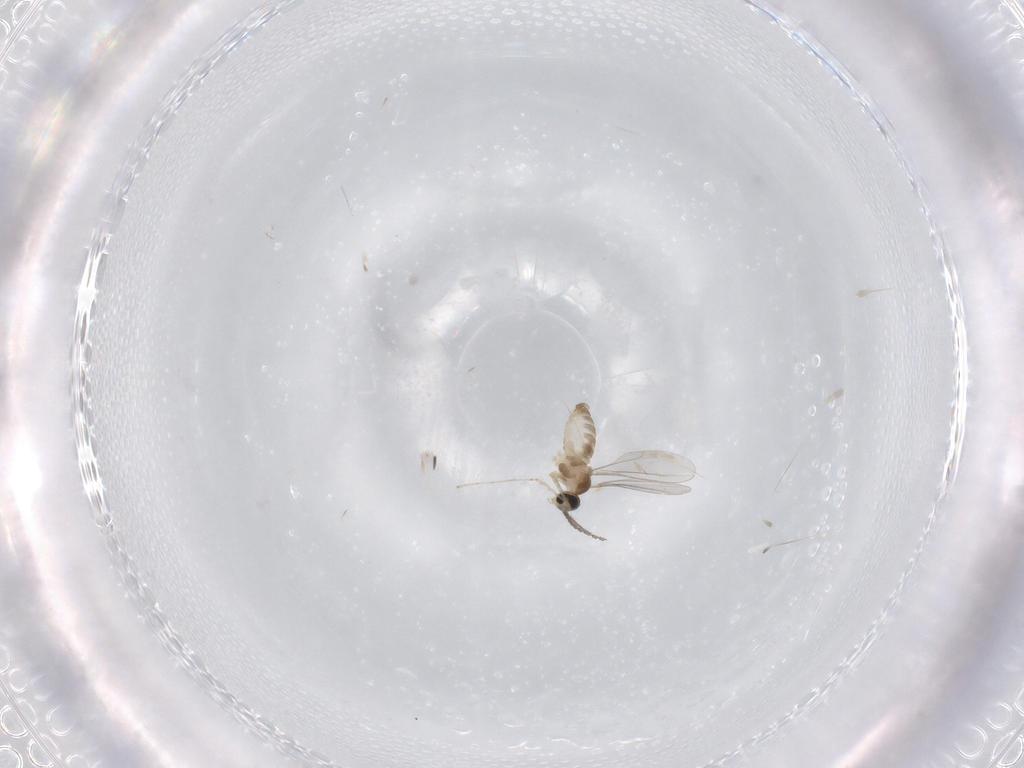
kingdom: Animalia
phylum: Arthropoda
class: Insecta
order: Diptera
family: Cecidomyiidae
